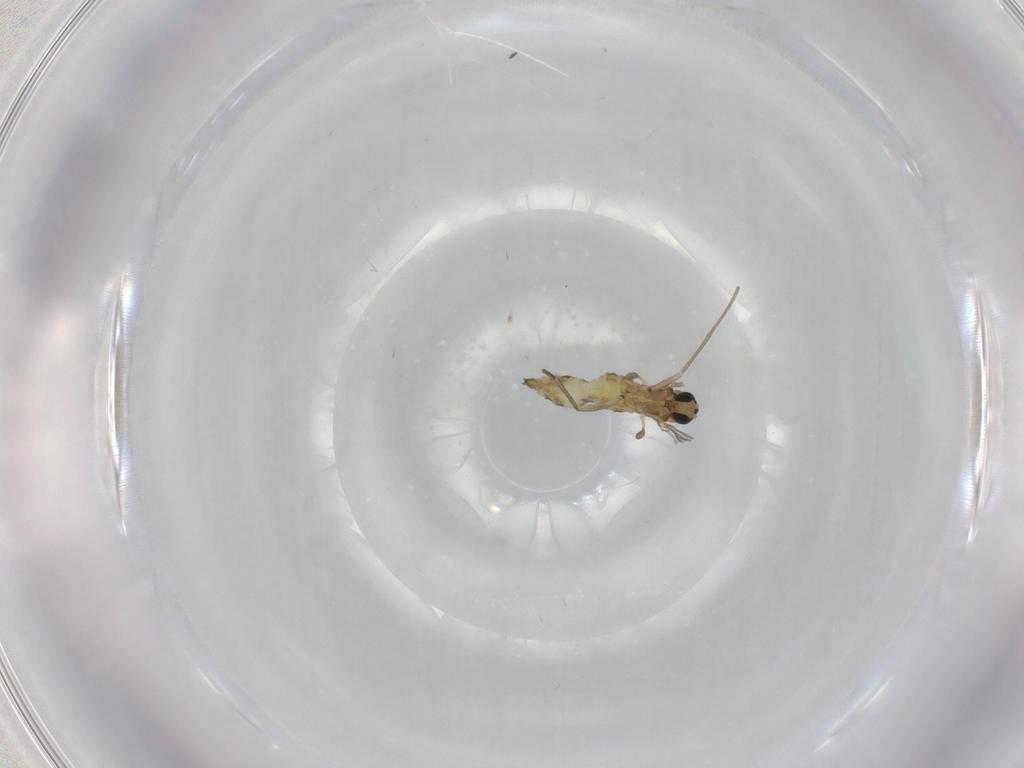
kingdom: Animalia
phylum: Arthropoda
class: Insecta
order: Diptera
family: Sciaridae
